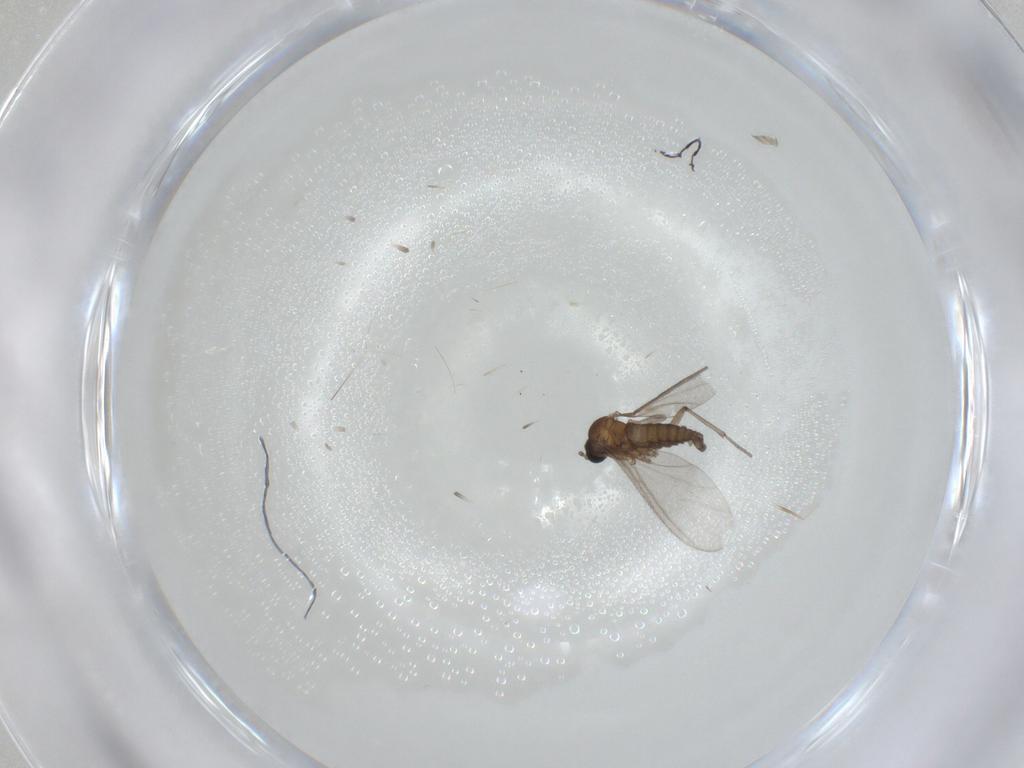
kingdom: Animalia
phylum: Arthropoda
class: Insecta
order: Diptera
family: Sciaridae
